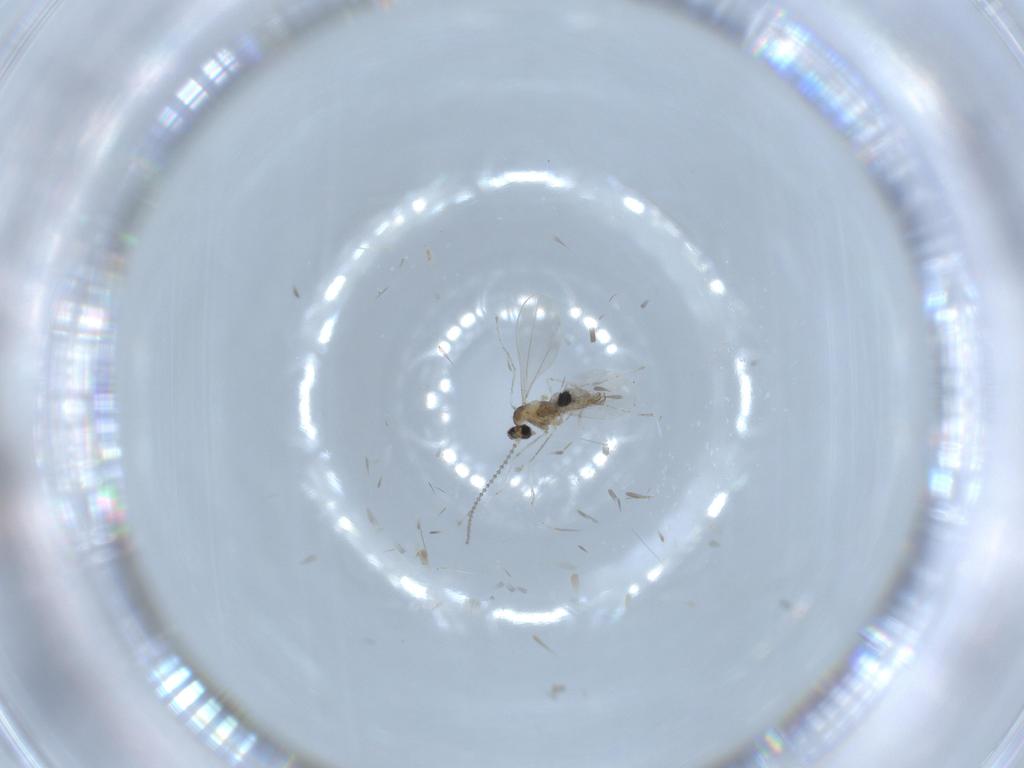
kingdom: Animalia
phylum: Arthropoda
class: Insecta
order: Diptera
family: Cecidomyiidae
